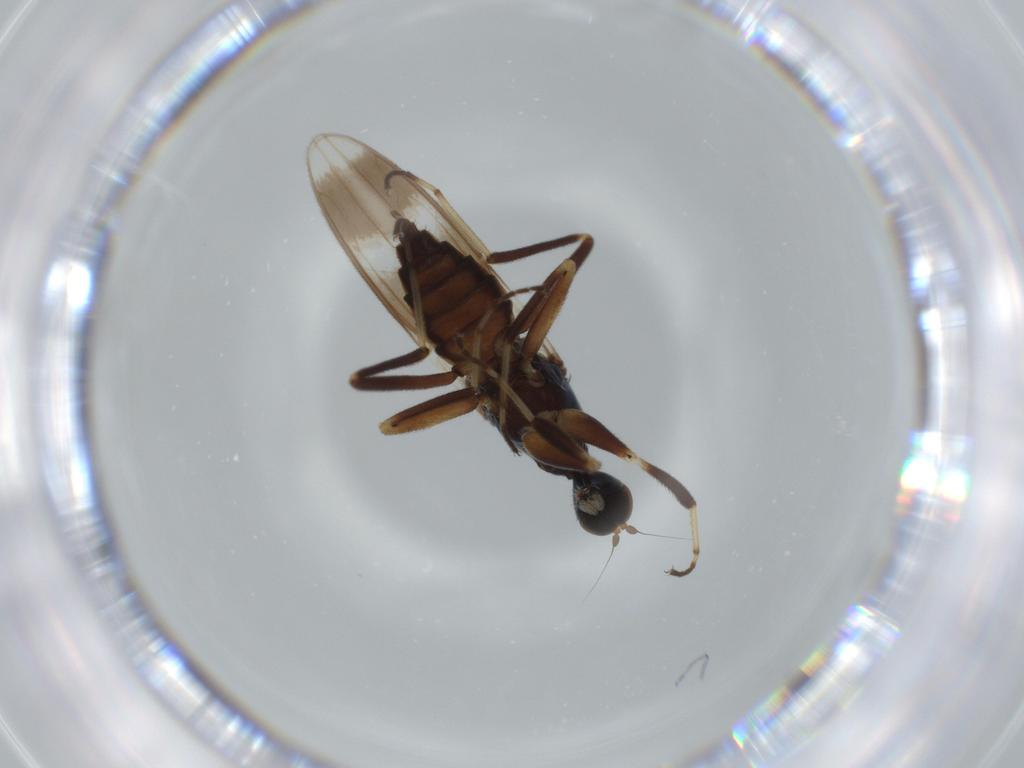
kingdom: Animalia
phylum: Arthropoda
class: Insecta
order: Diptera
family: Hybotidae
